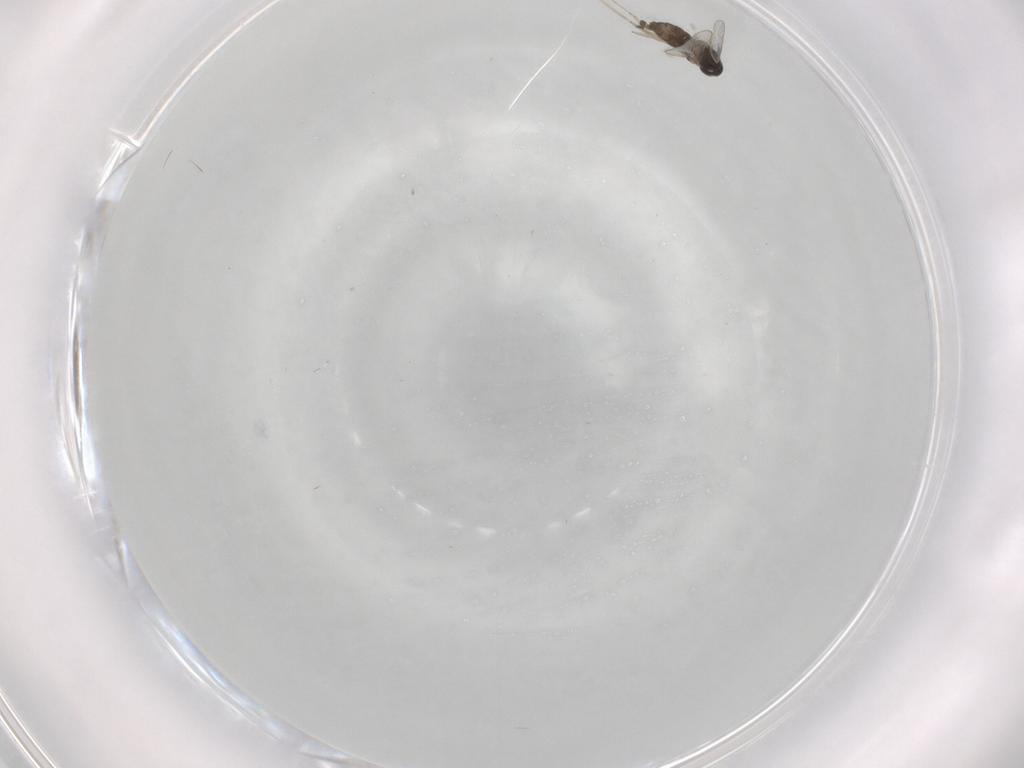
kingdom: Animalia
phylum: Arthropoda
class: Insecta
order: Diptera
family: Cecidomyiidae
